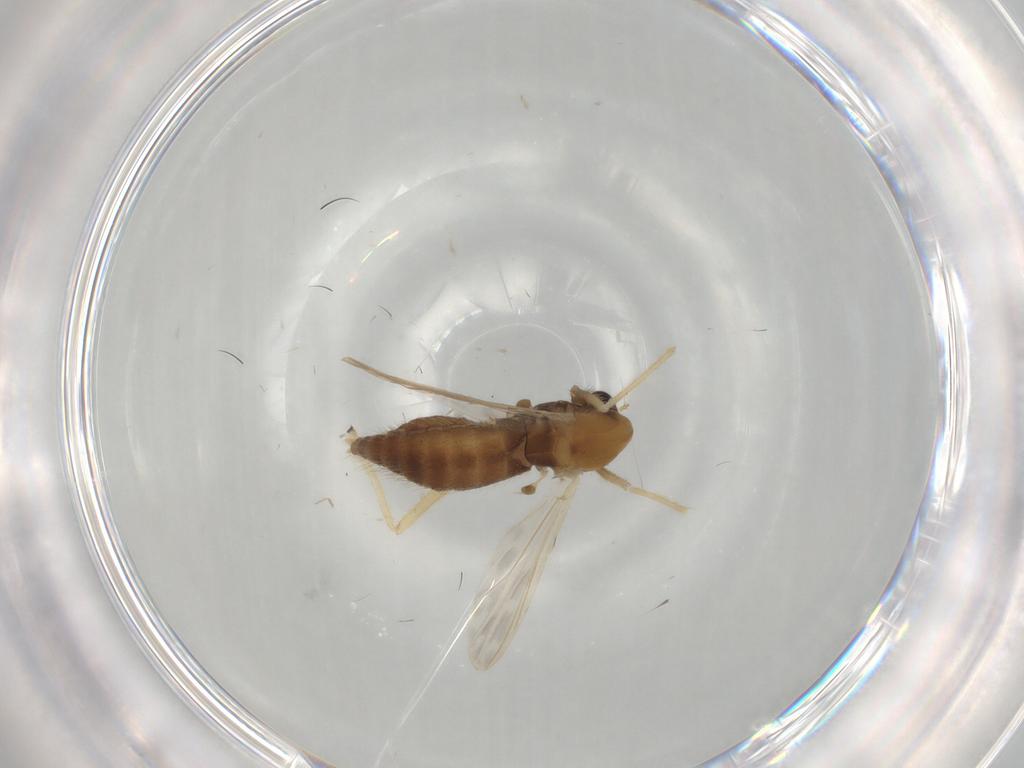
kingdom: Animalia
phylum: Arthropoda
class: Insecta
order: Diptera
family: Chironomidae
